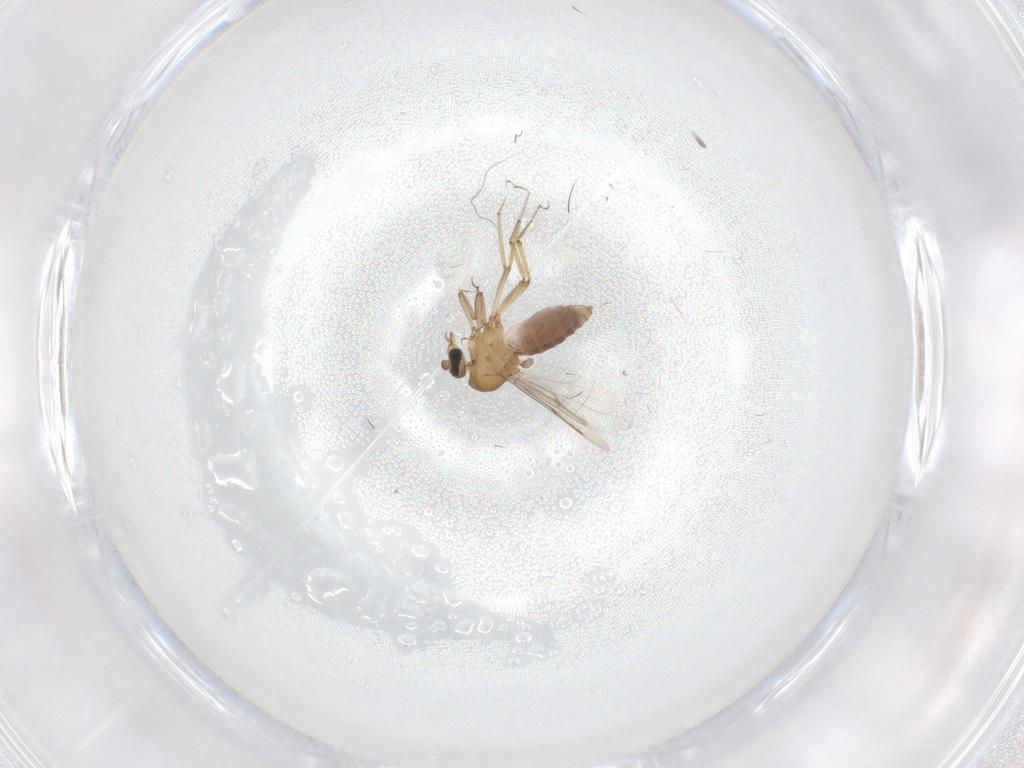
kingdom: Animalia
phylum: Arthropoda
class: Insecta
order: Diptera
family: Ceratopogonidae
